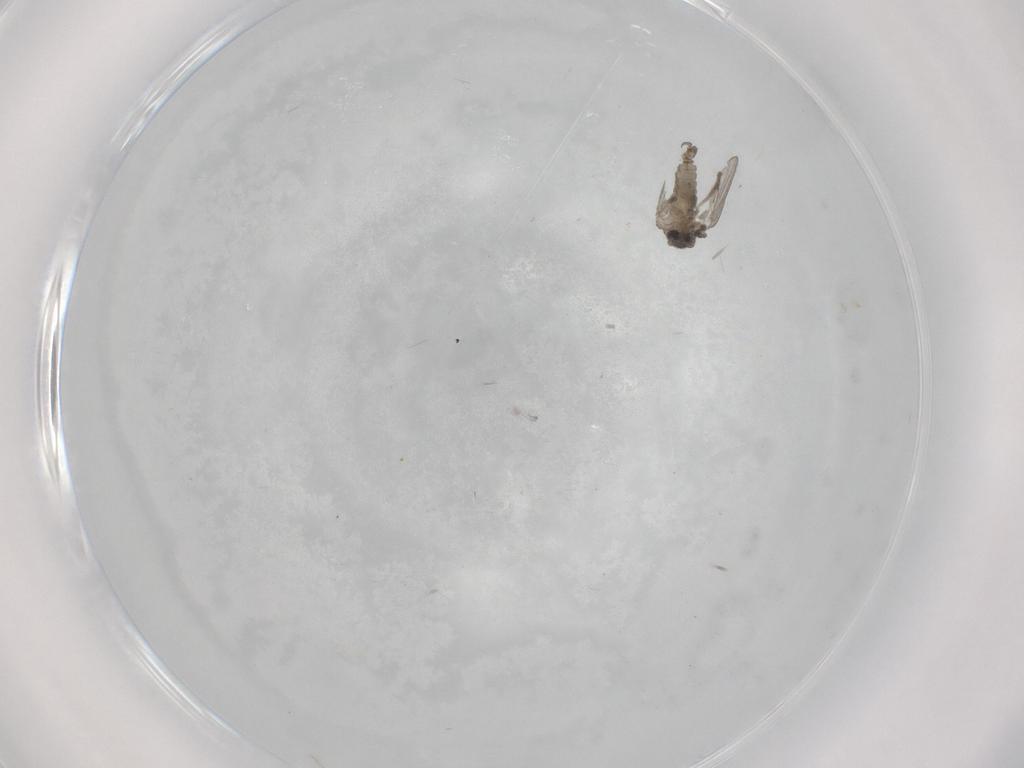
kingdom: Animalia
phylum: Arthropoda
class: Insecta
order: Diptera
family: Psychodidae
